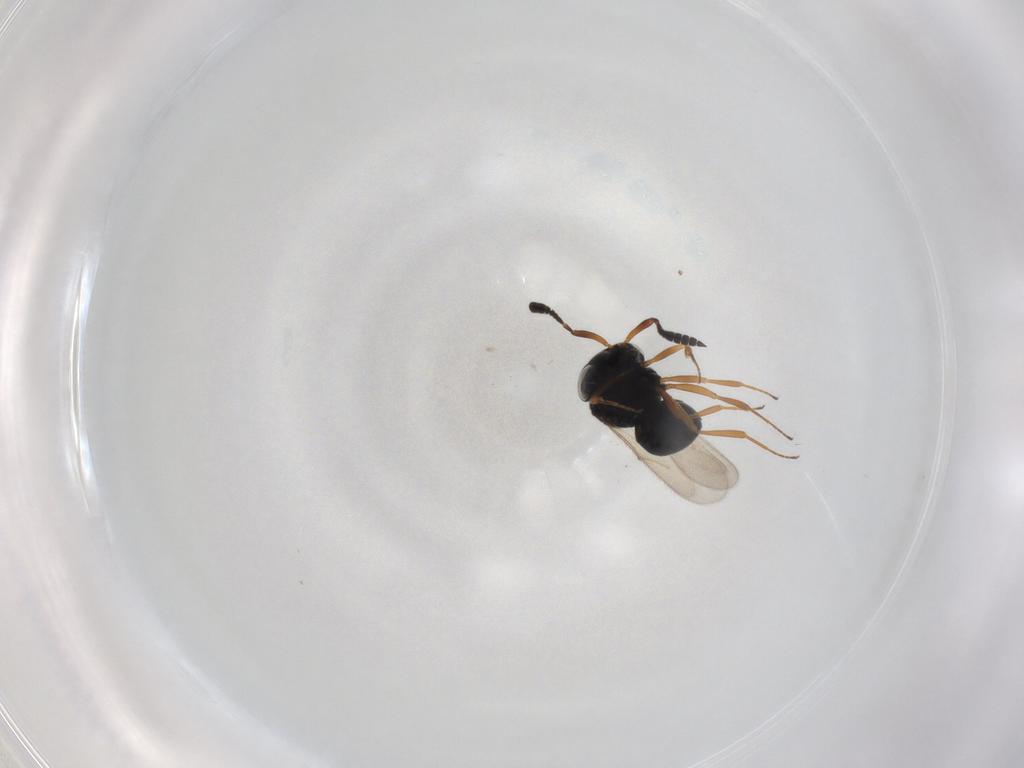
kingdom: Animalia
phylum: Arthropoda
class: Insecta
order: Hymenoptera
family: Scelionidae
